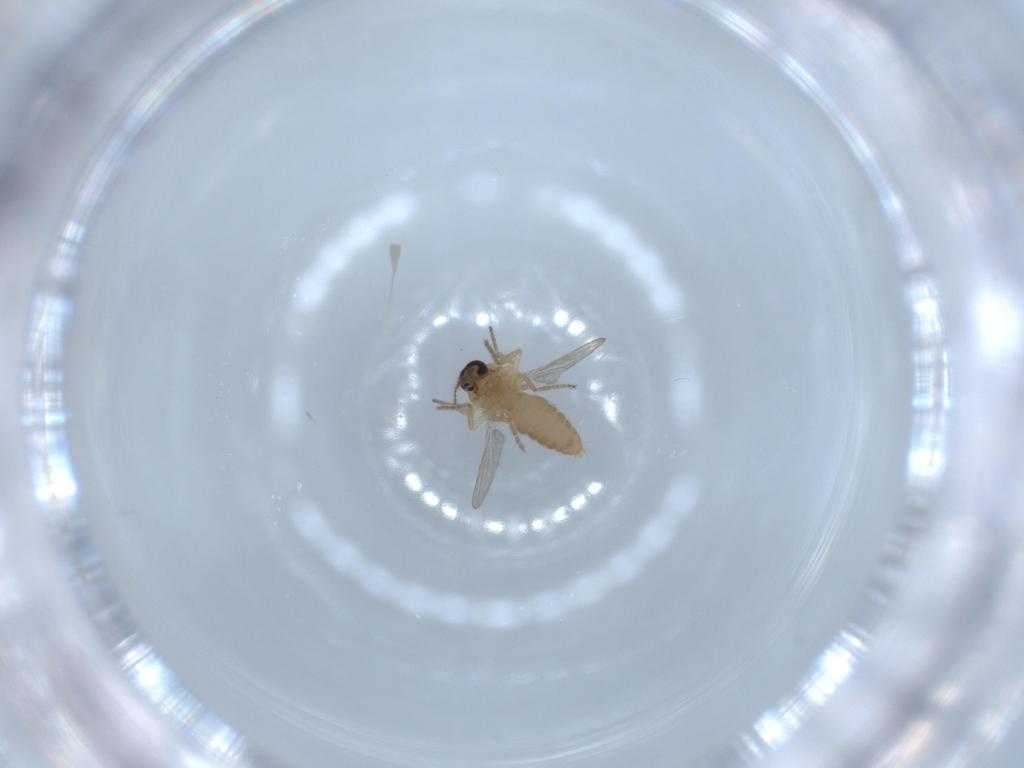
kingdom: Animalia
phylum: Arthropoda
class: Insecta
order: Diptera
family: Ceratopogonidae
